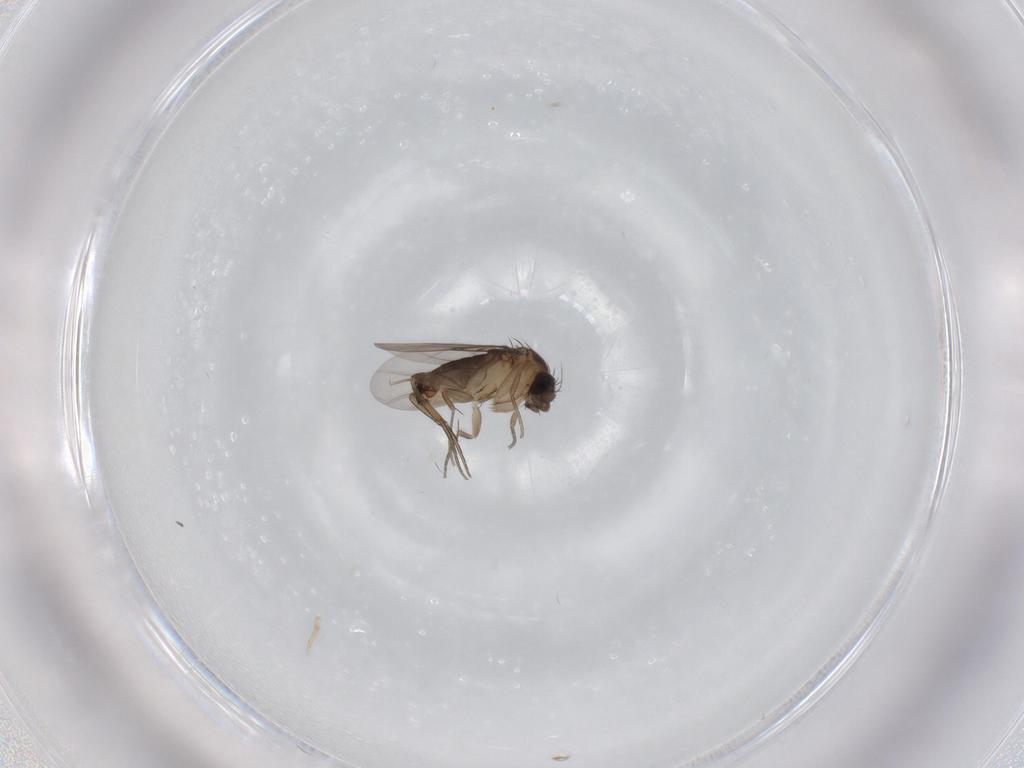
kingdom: Animalia
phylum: Arthropoda
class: Insecta
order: Diptera
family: Phoridae
